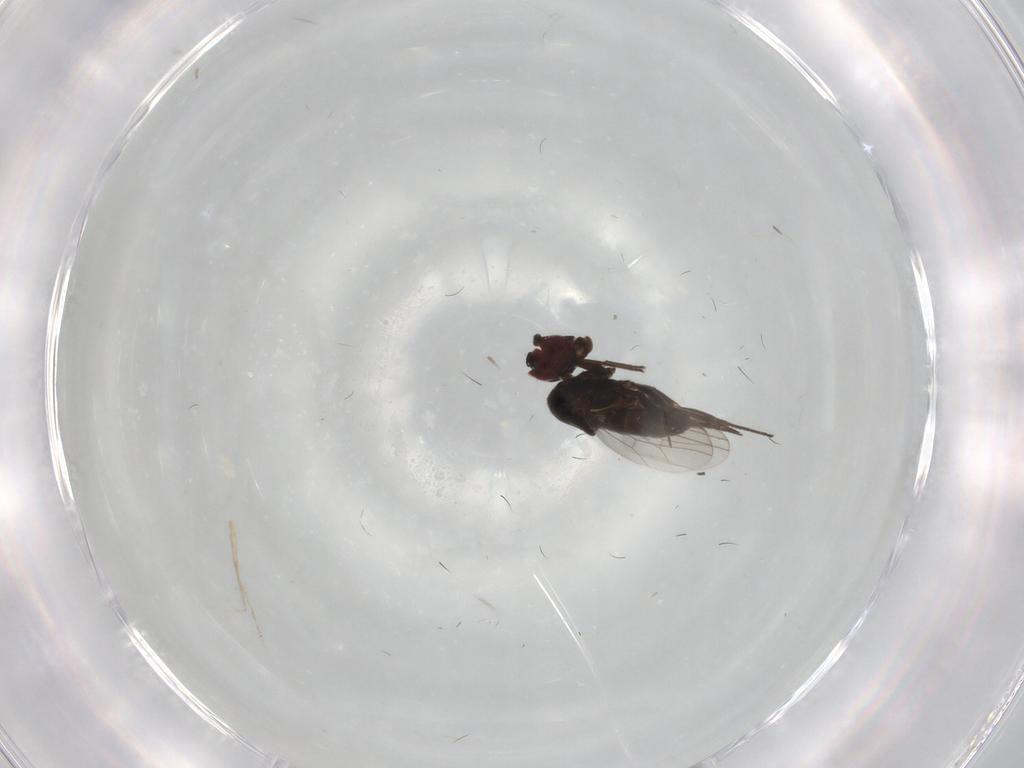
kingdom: Animalia
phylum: Arthropoda
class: Insecta
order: Diptera
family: Dolichopodidae
